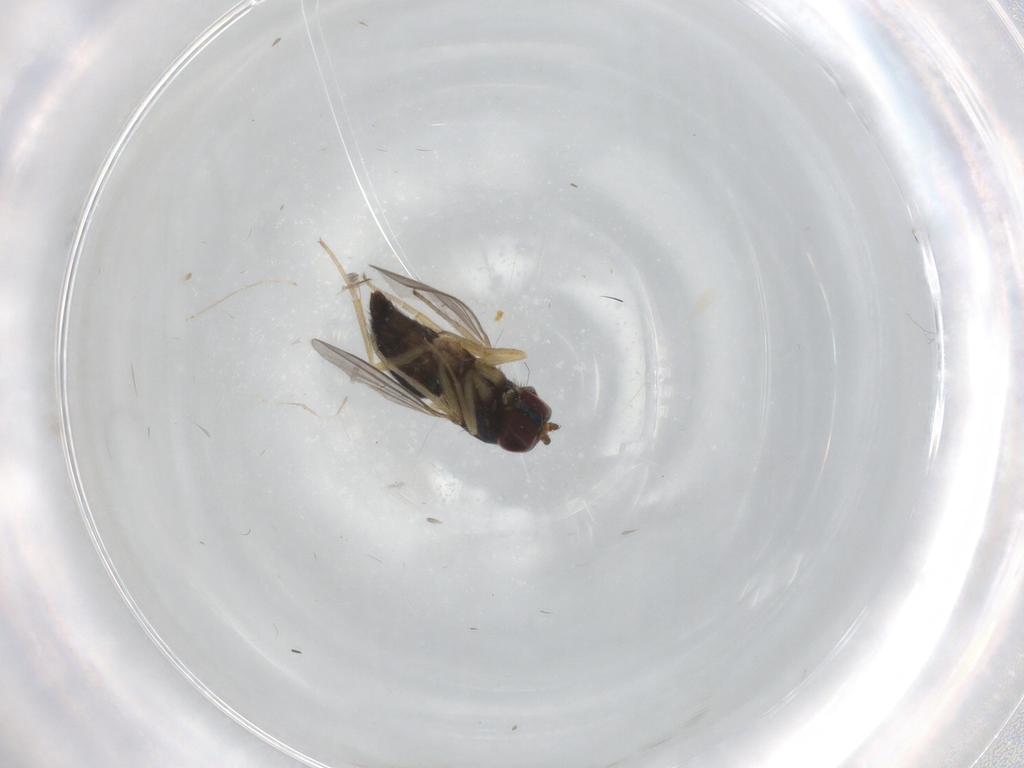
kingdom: Animalia
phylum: Arthropoda
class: Insecta
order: Diptera
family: Dolichopodidae
